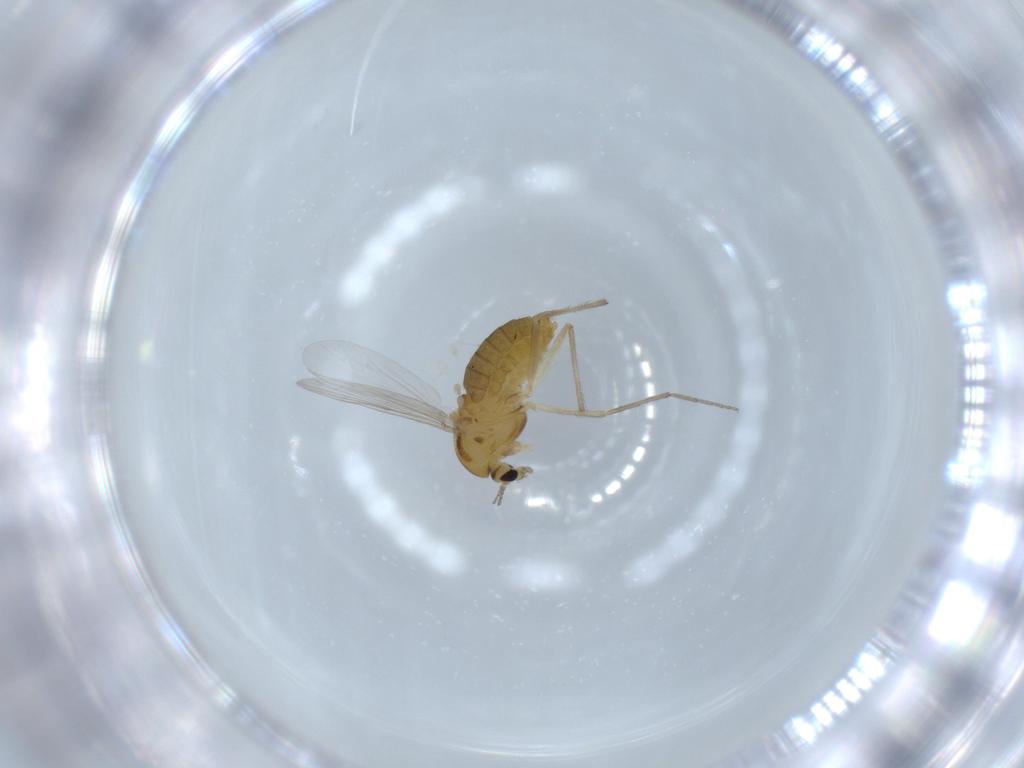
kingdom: Animalia
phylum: Arthropoda
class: Insecta
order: Diptera
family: Chironomidae
